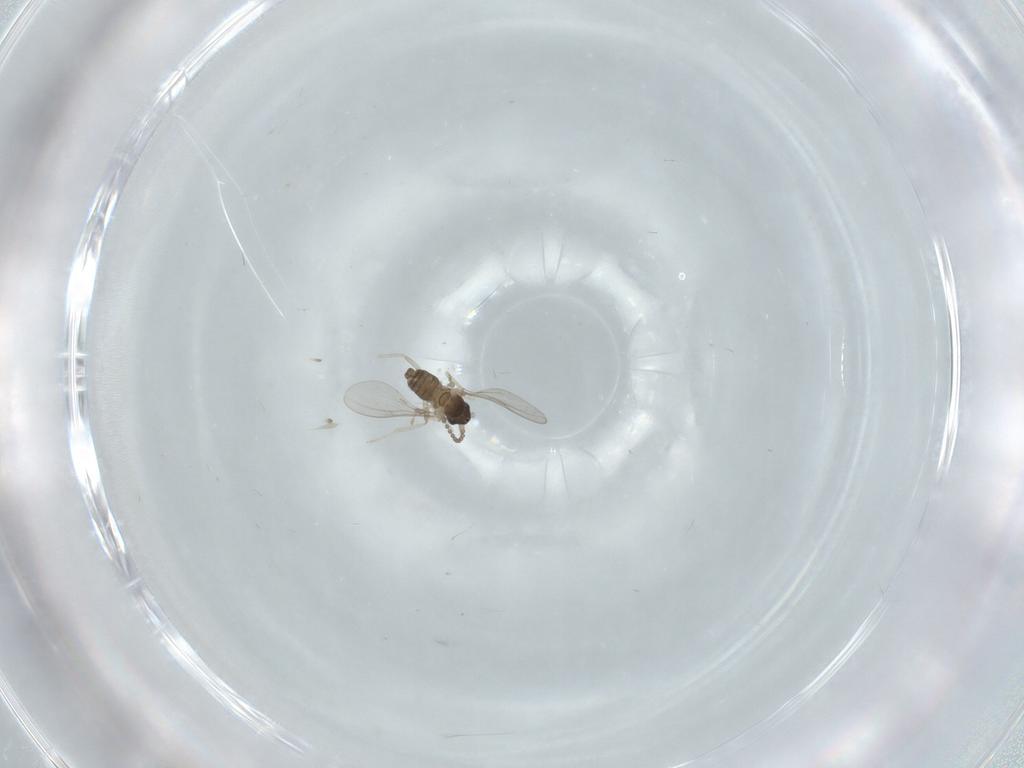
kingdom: Animalia
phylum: Arthropoda
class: Insecta
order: Diptera
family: Cecidomyiidae
